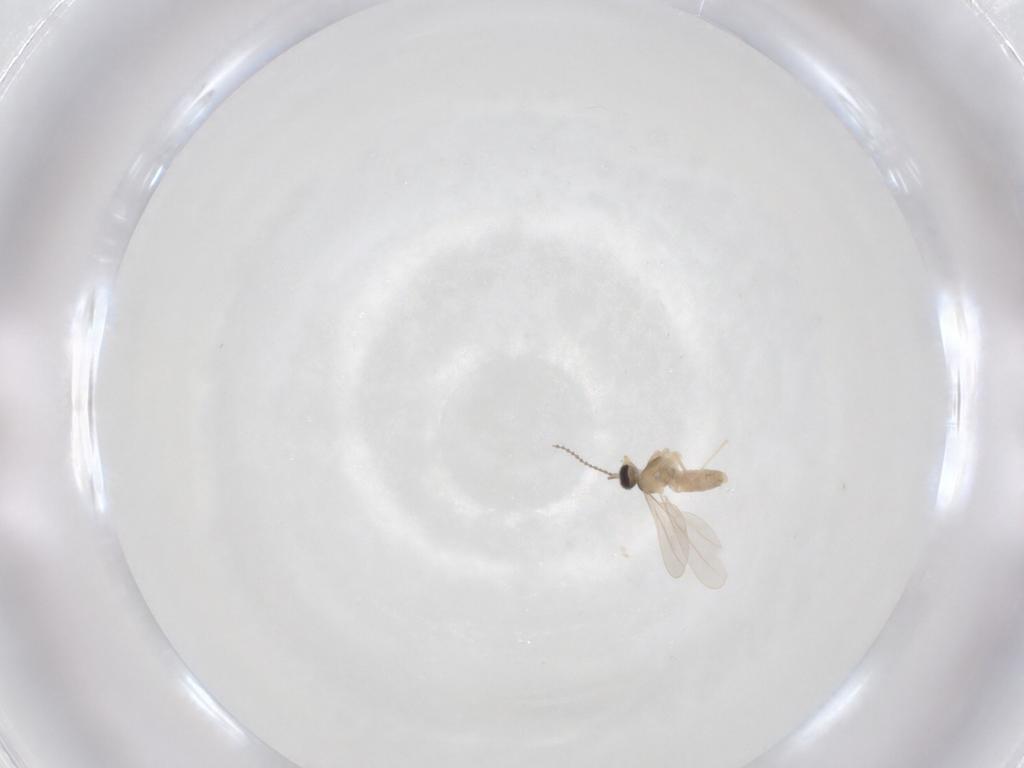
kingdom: Animalia
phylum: Arthropoda
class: Insecta
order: Diptera
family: Cecidomyiidae
